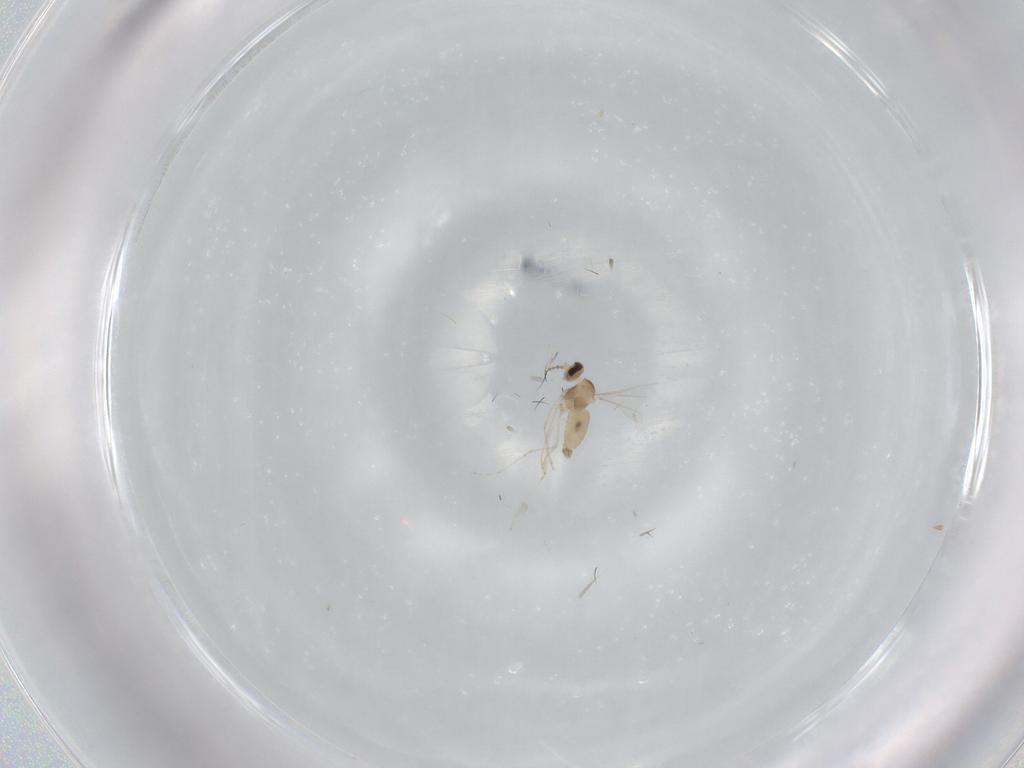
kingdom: Animalia
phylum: Arthropoda
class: Insecta
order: Diptera
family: Cecidomyiidae
